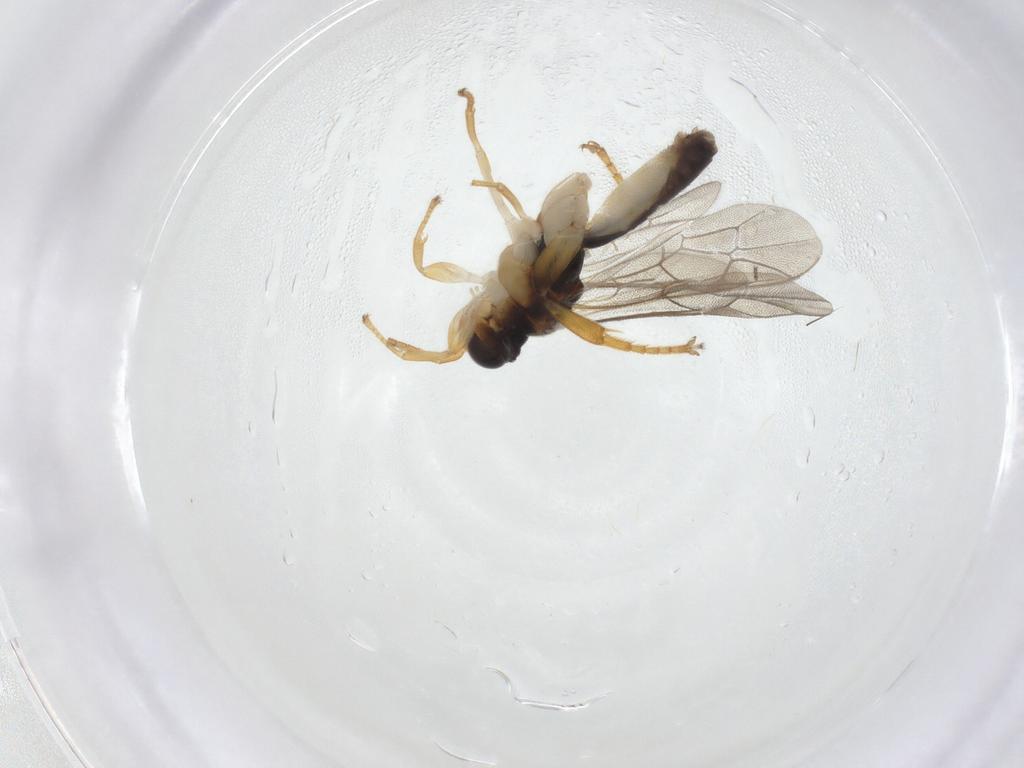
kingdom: Animalia
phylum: Arthropoda
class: Insecta
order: Hymenoptera
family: Ichneumonidae
